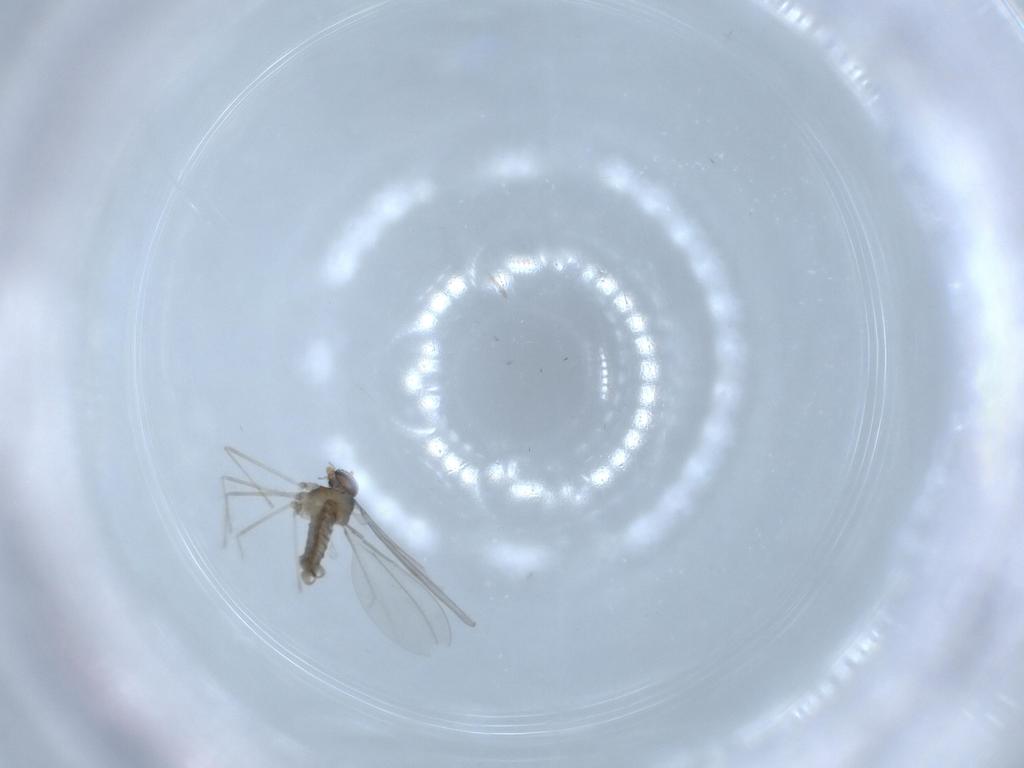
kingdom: Animalia
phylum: Arthropoda
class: Insecta
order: Diptera
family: Cecidomyiidae
